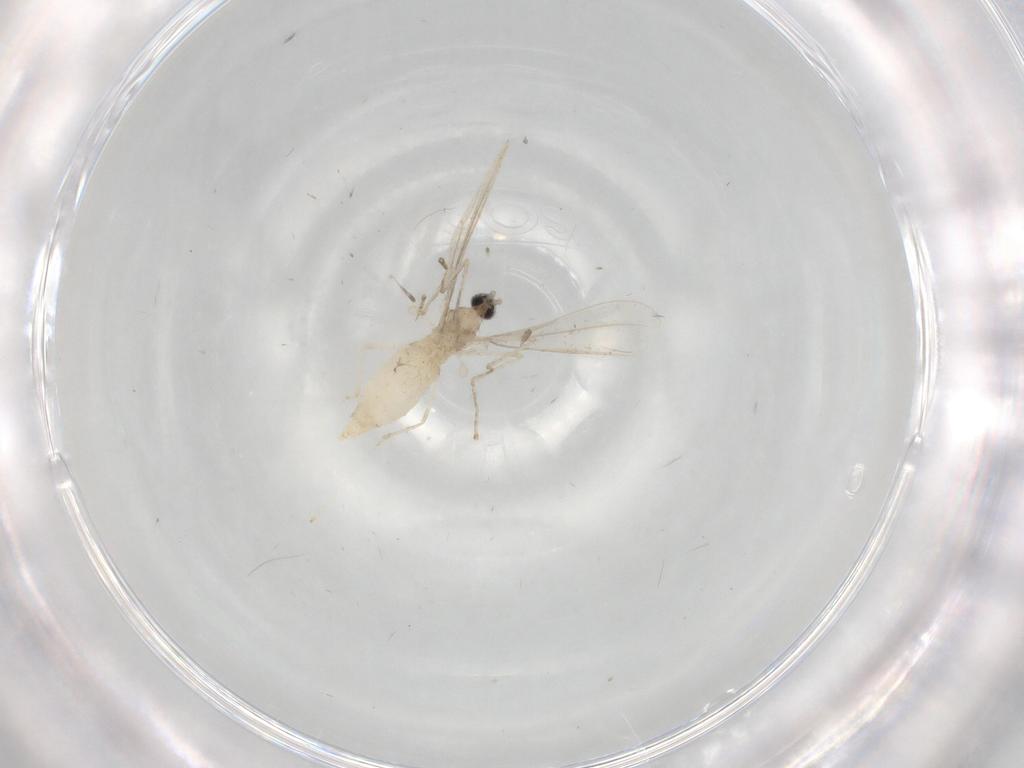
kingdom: Animalia
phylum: Arthropoda
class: Insecta
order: Diptera
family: Cecidomyiidae
